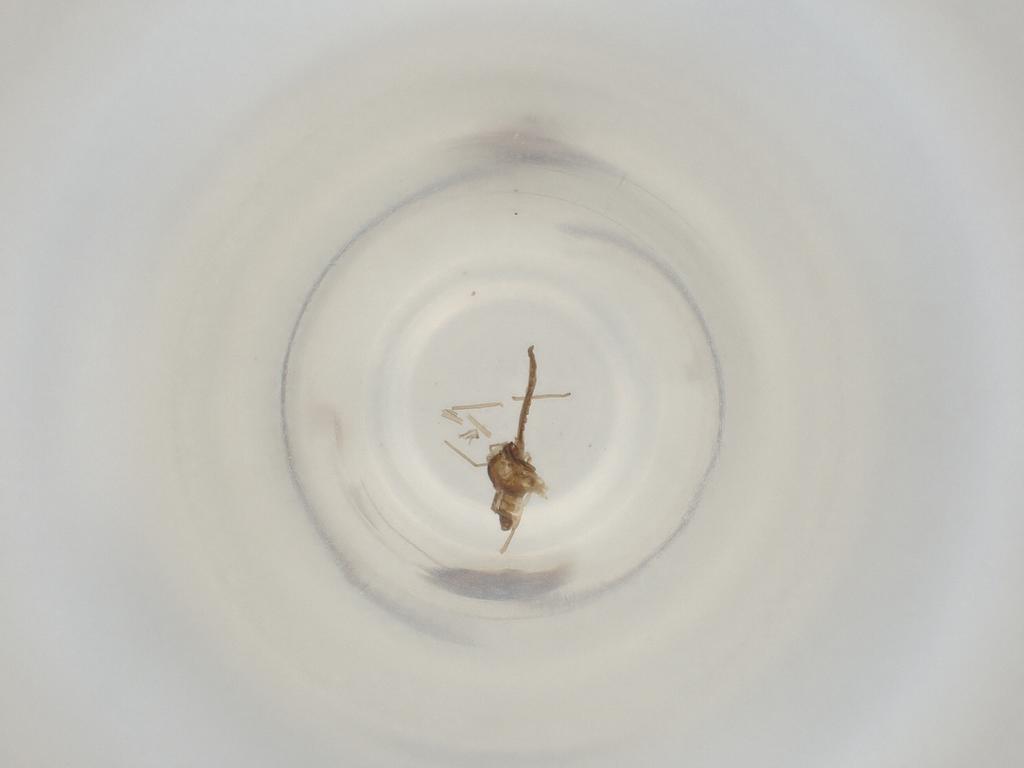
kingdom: Animalia
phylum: Arthropoda
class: Insecta
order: Diptera
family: Cecidomyiidae
